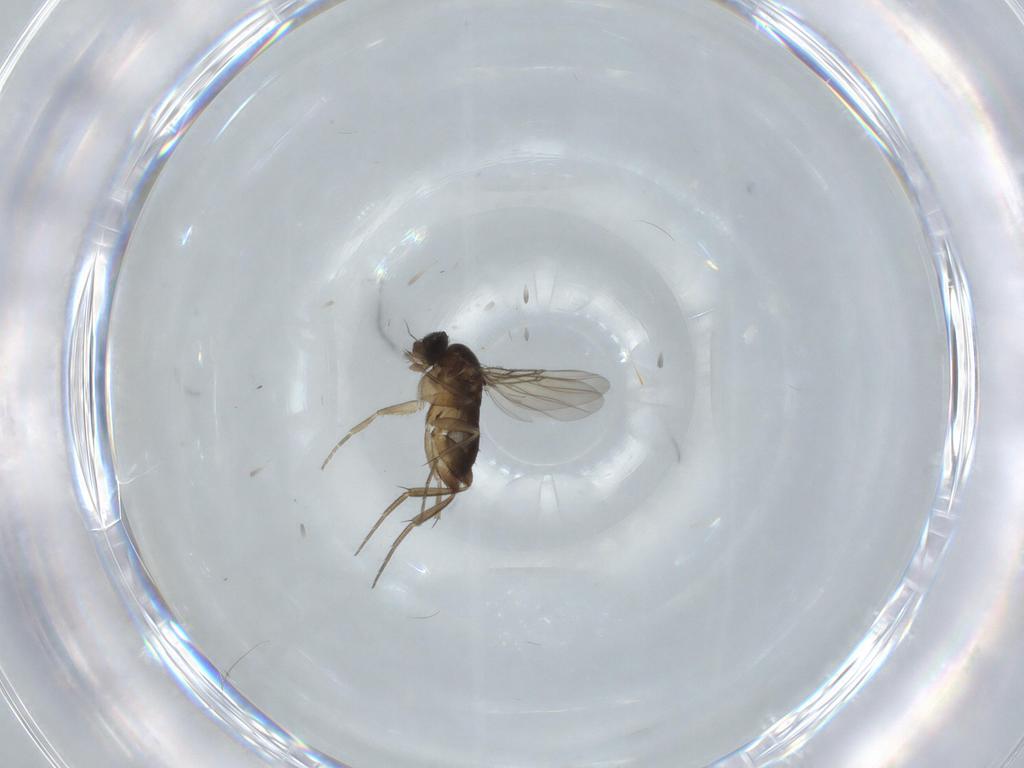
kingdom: Animalia
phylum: Arthropoda
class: Insecta
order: Diptera
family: Phoridae
